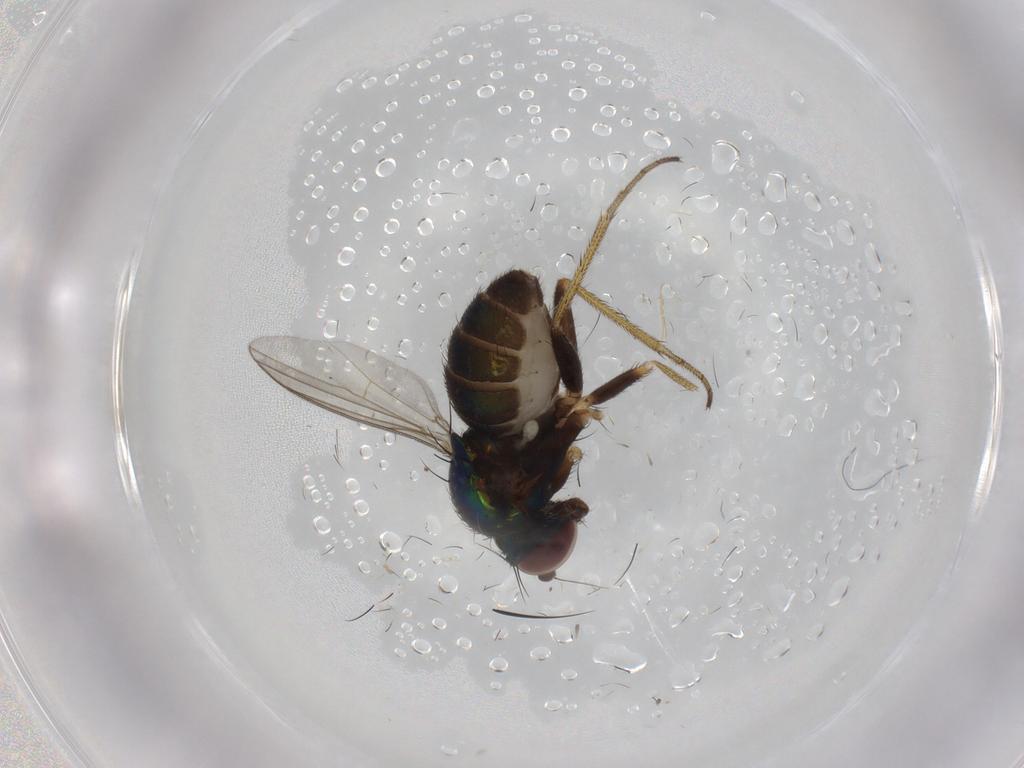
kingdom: Animalia
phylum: Arthropoda
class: Insecta
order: Diptera
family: Dolichopodidae
